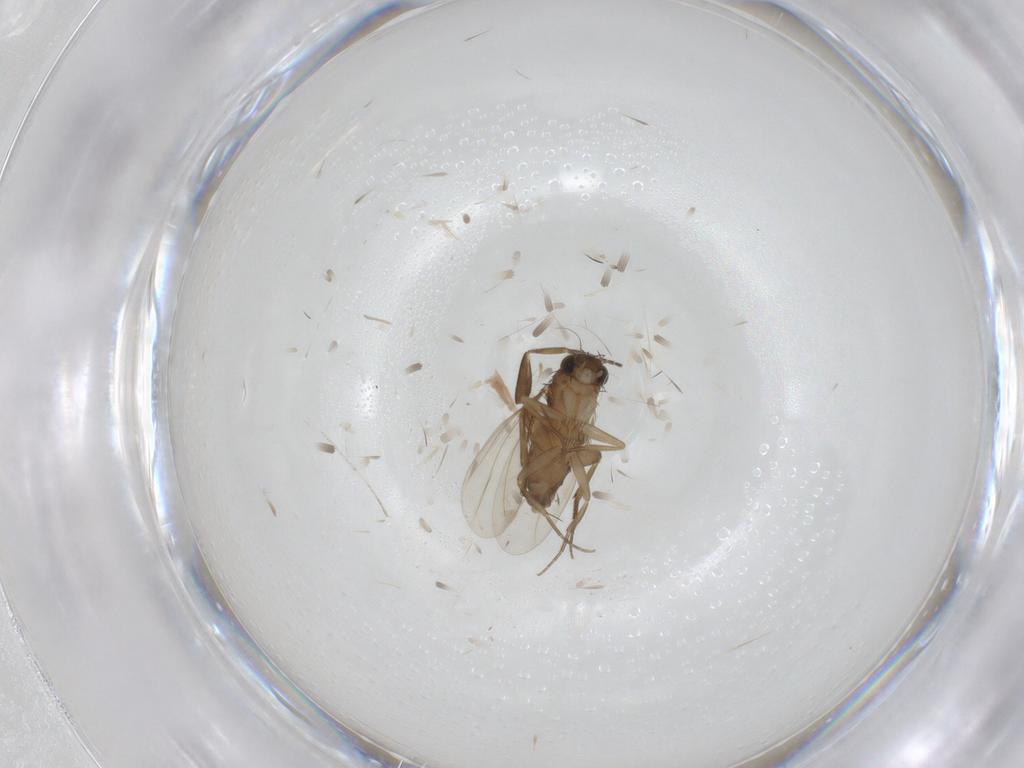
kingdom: Animalia
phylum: Arthropoda
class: Insecta
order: Diptera
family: Phoridae
